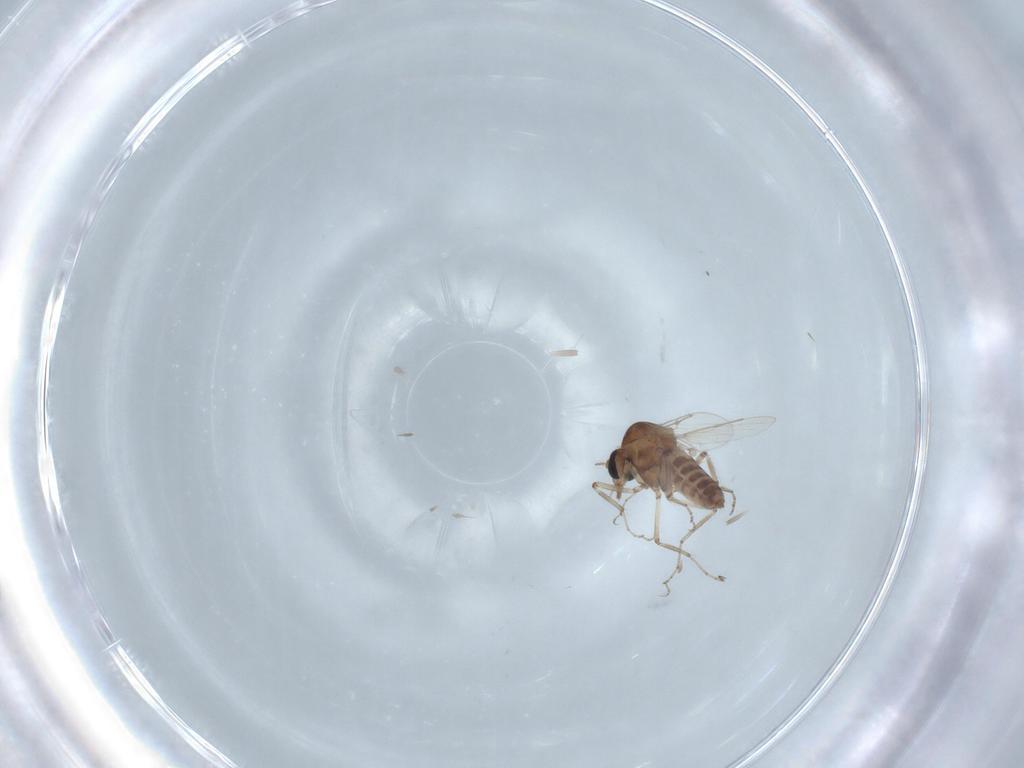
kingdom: Animalia
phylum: Arthropoda
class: Insecta
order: Diptera
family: Ceratopogonidae
